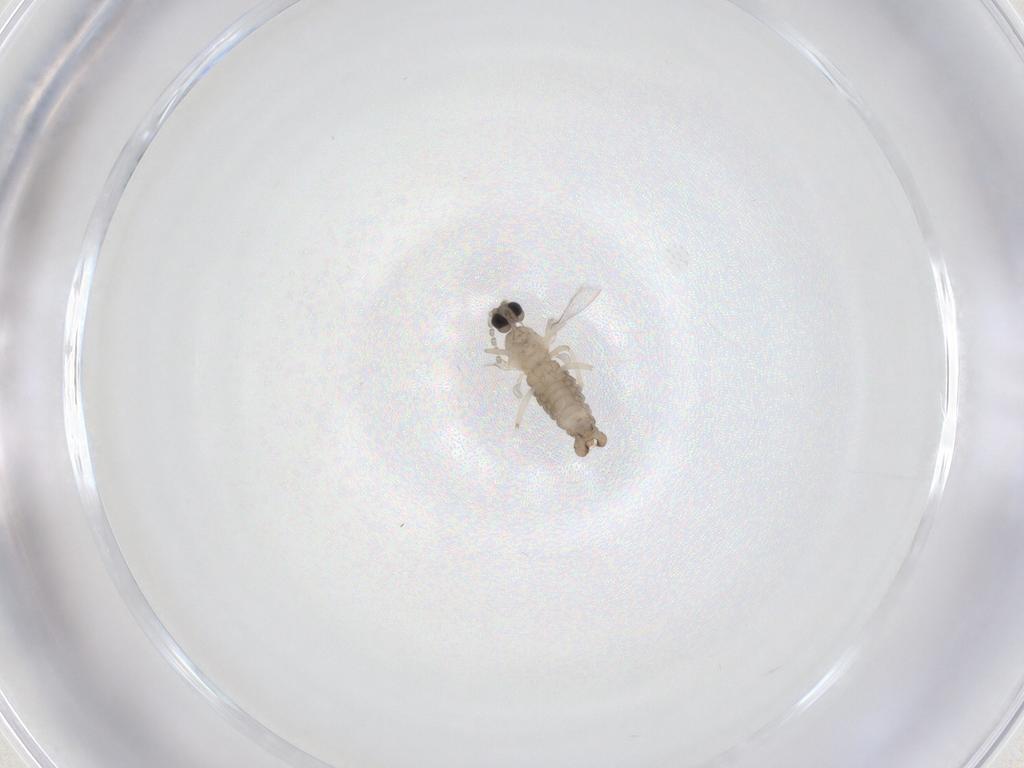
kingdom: Animalia
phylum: Arthropoda
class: Insecta
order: Diptera
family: Cecidomyiidae
